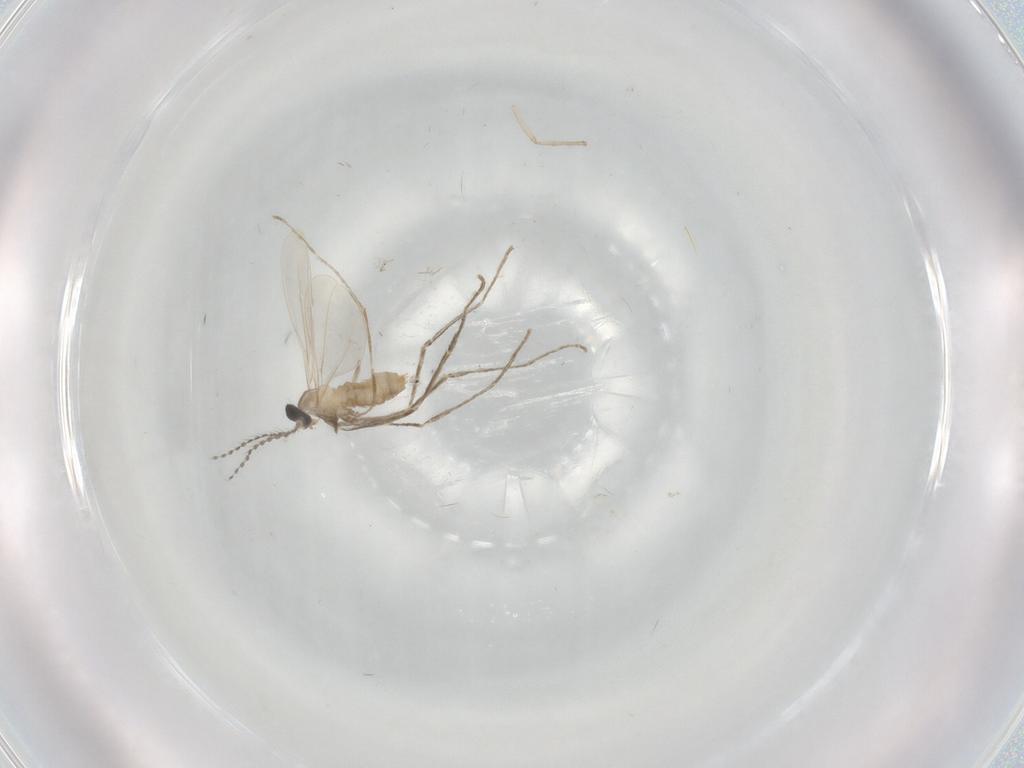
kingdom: Animalia
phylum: Arthropoda
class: Insecta
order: Diptera
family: Cecidomyiidae
